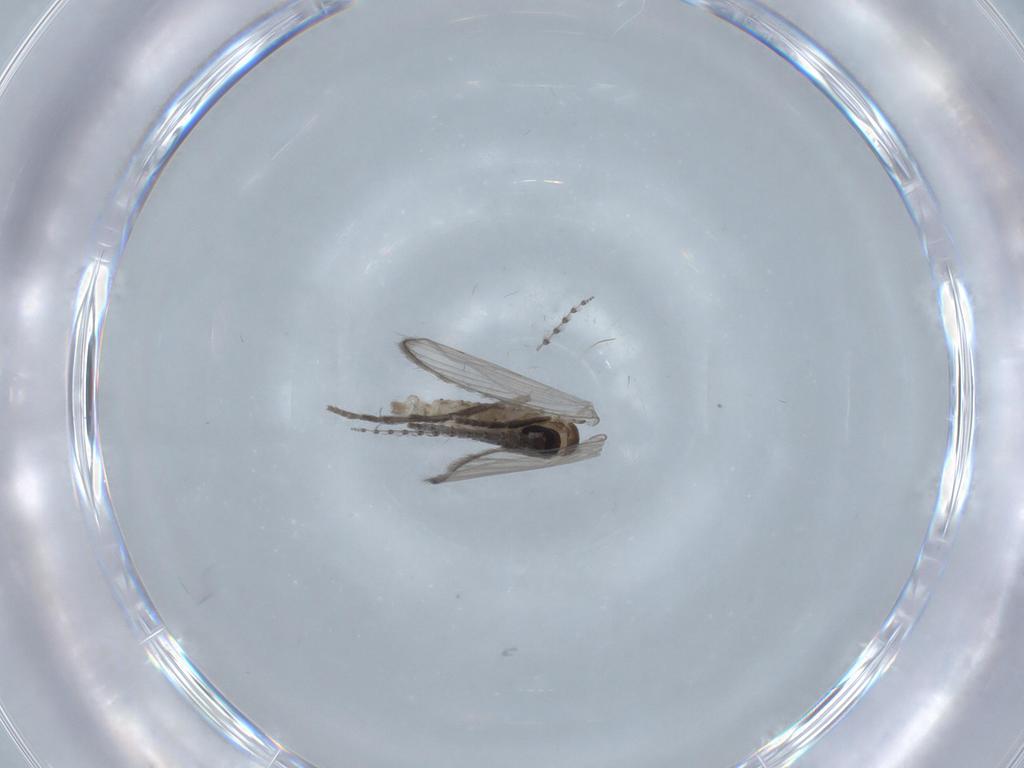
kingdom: Animalia
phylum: Arthropoda
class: Insecta
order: Diptera
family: Psychodidae
